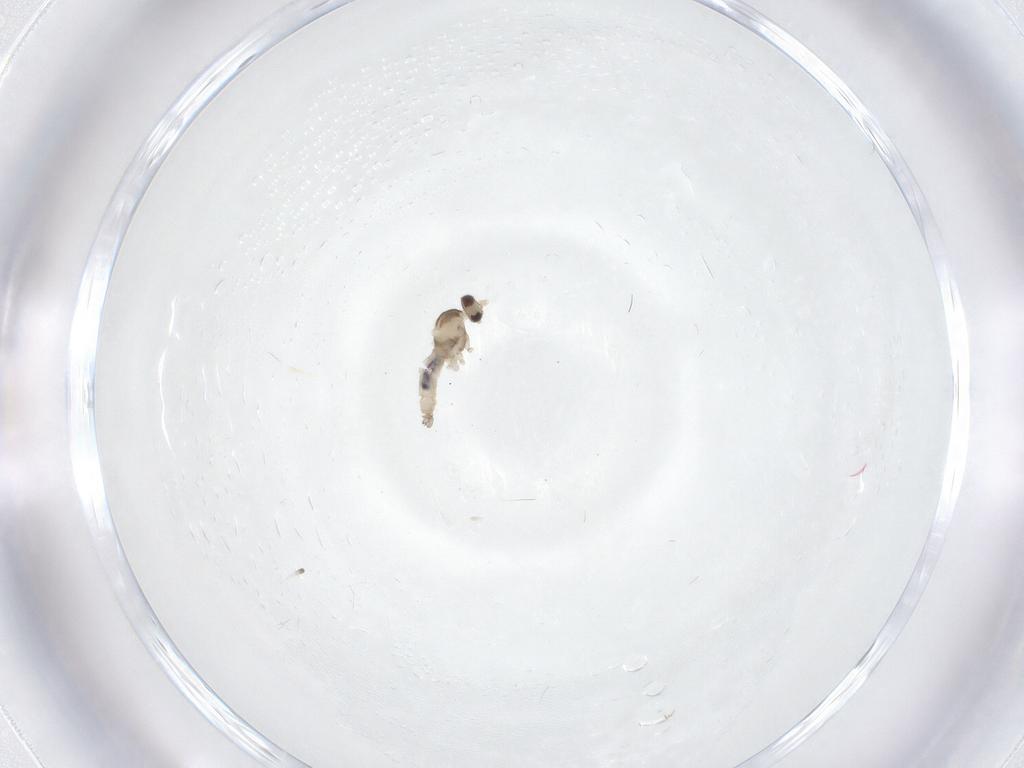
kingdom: Animalia
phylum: Arthropoda
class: Insecta
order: Diptera
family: Cecidomyiidae
